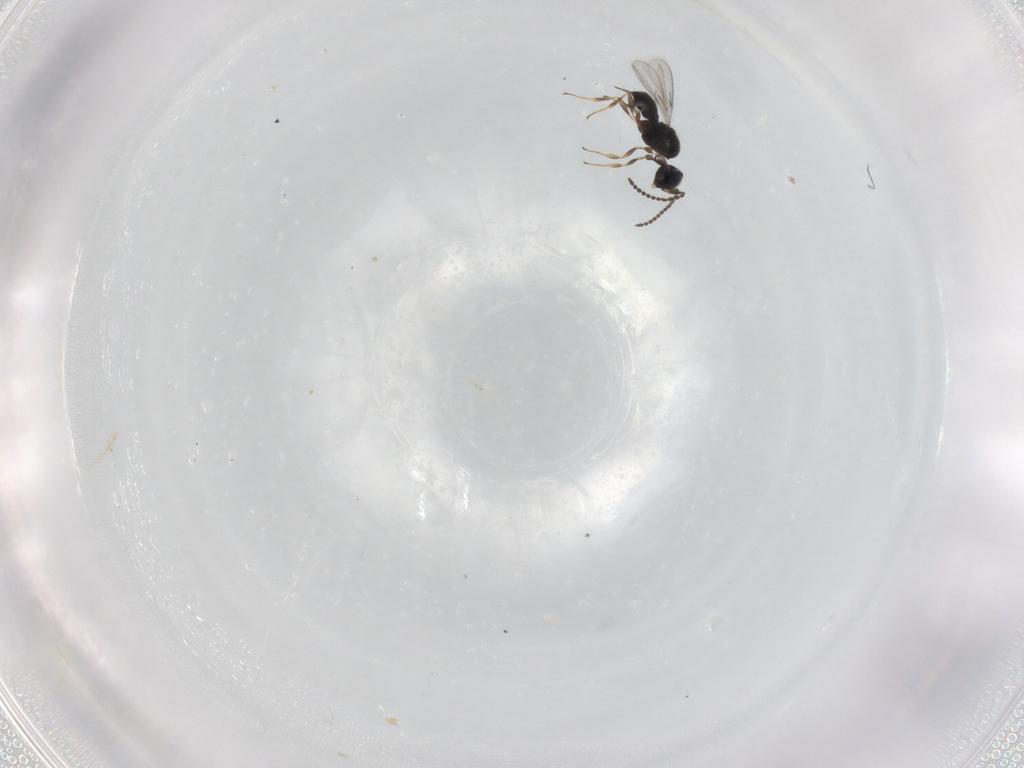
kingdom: Animalia
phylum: Arthropoda
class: Insecta
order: Hymenoptera
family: Scelionidae
